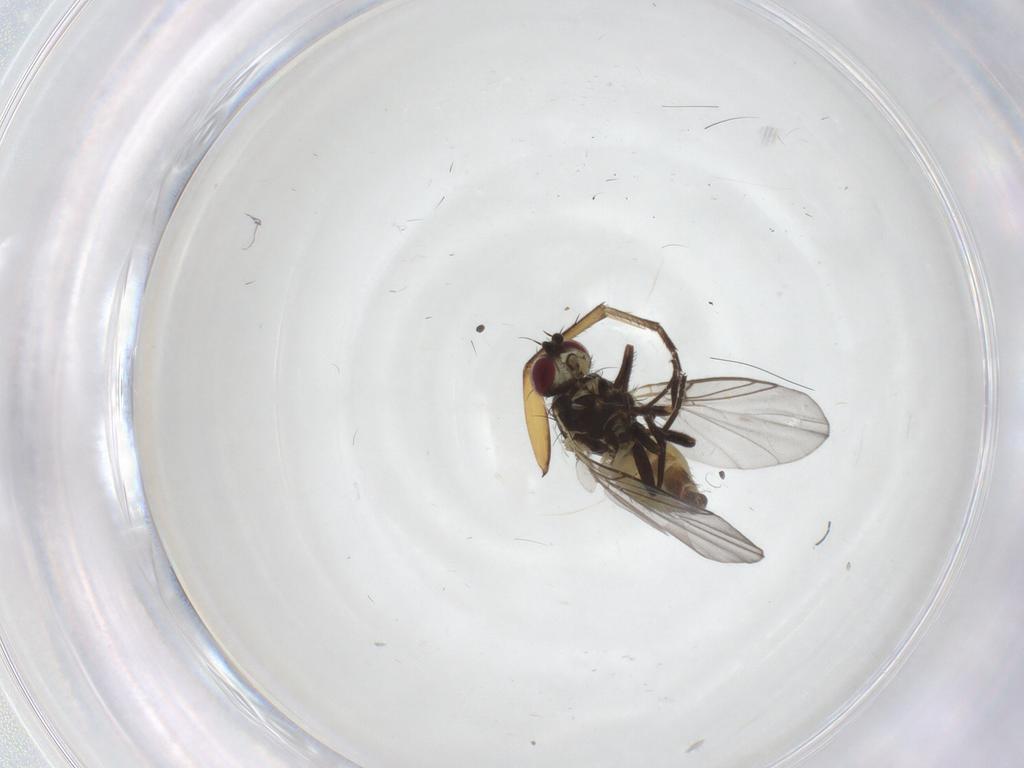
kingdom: Animalia
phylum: Arthropoda
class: Insecta
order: Diptera
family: Mycetophilidae
